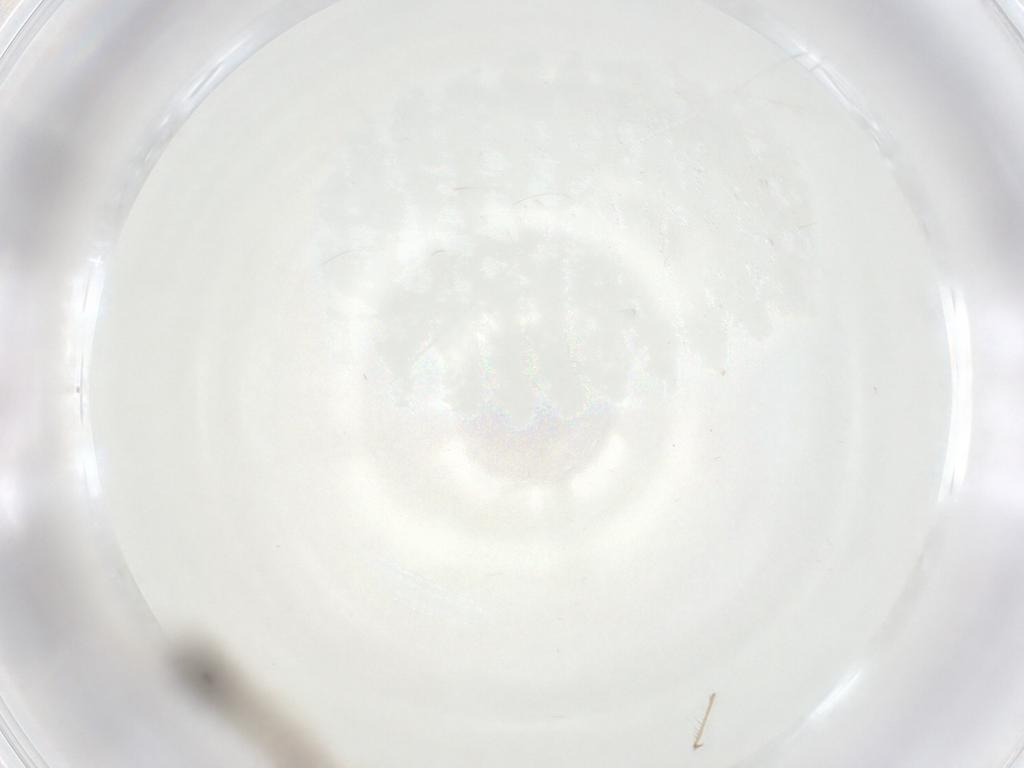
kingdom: Animalia
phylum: Arthropoda
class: Insecta
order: Diptera
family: Chironomidae
